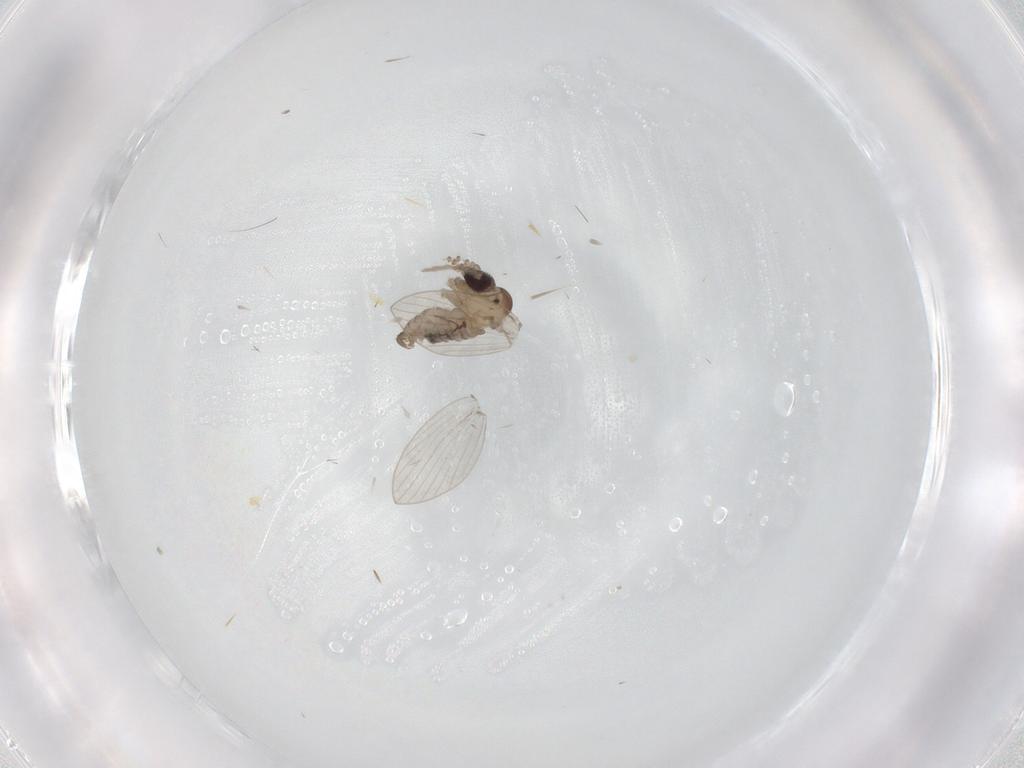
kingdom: Animalia
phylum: Arthropoda
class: Insecta
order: Diptera
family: Psychodidae
